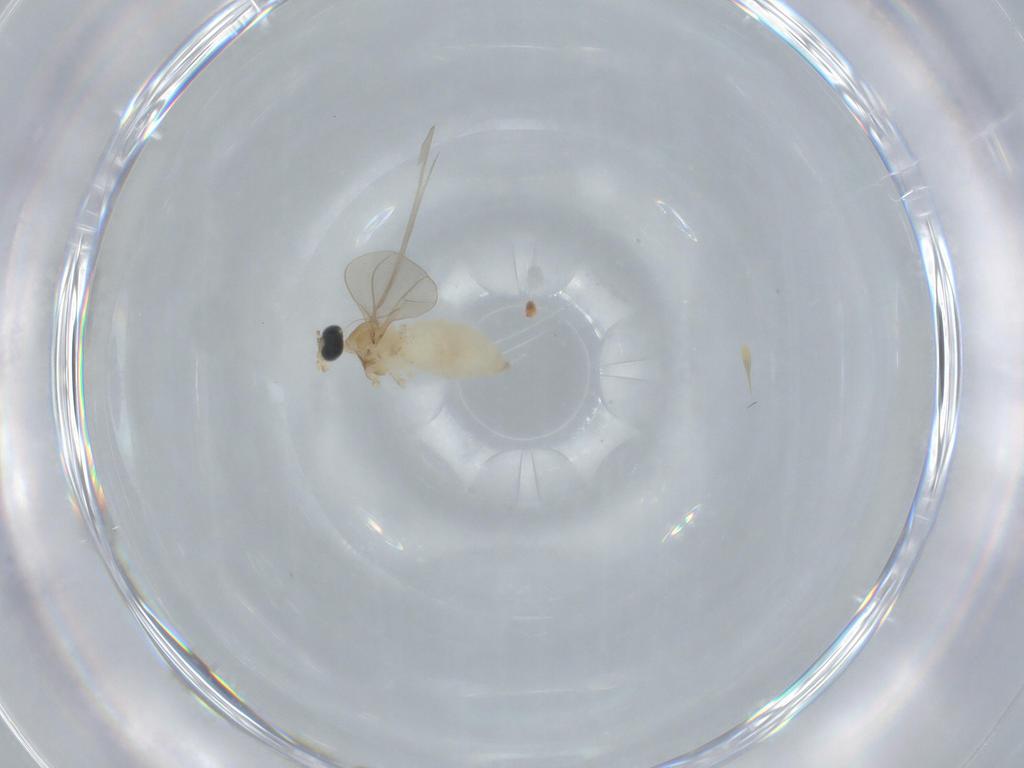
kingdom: Animalia
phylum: Arthropoda
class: Insecta
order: Diptera
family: Cecidomyiidae
